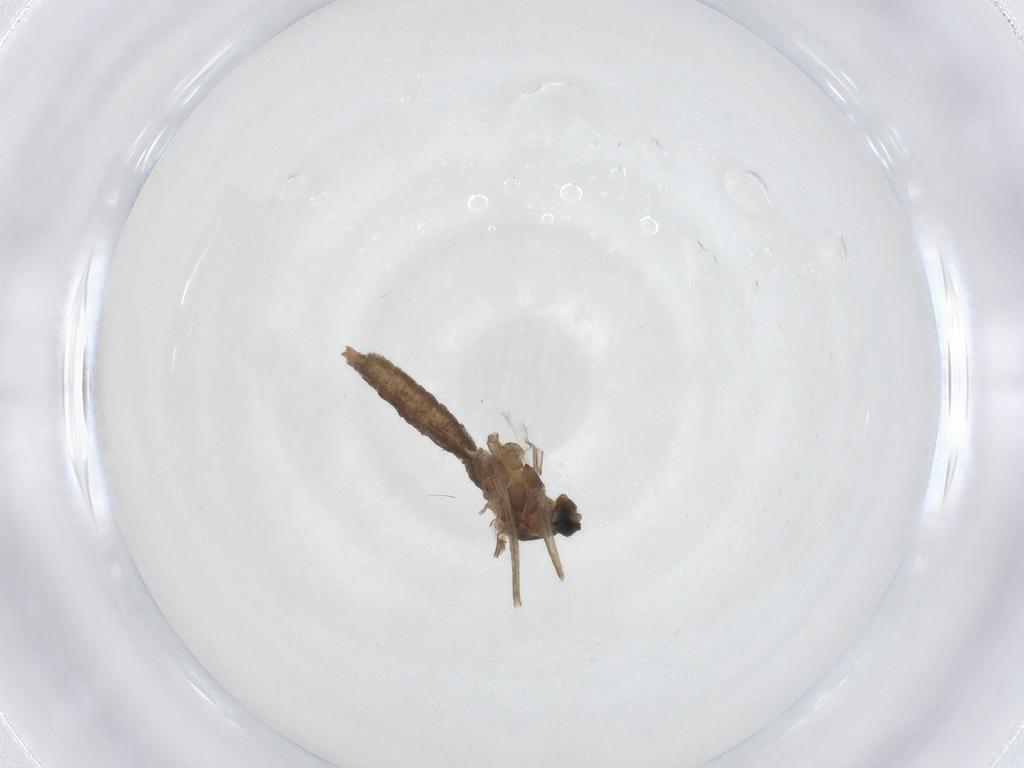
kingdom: Animalia
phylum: Arthropoda
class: Insecta
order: Diptera
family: Cecidomyiidae
